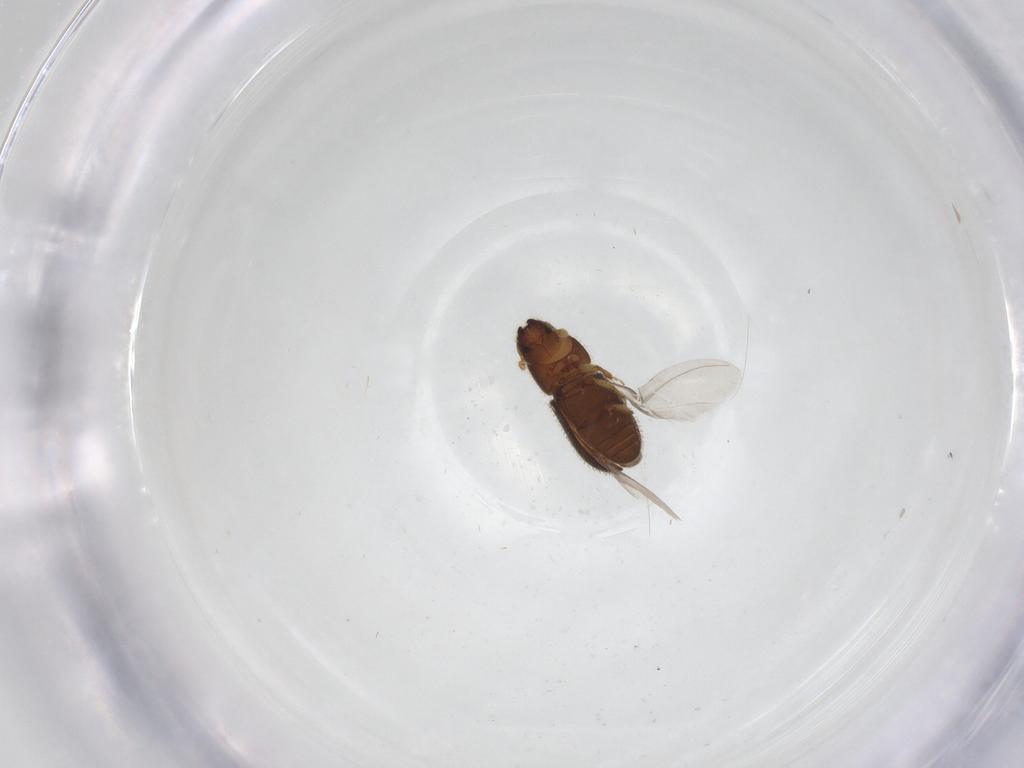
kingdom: Animalia
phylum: Arthropoda
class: Insecta
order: Coleoptera
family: Curculionidae
